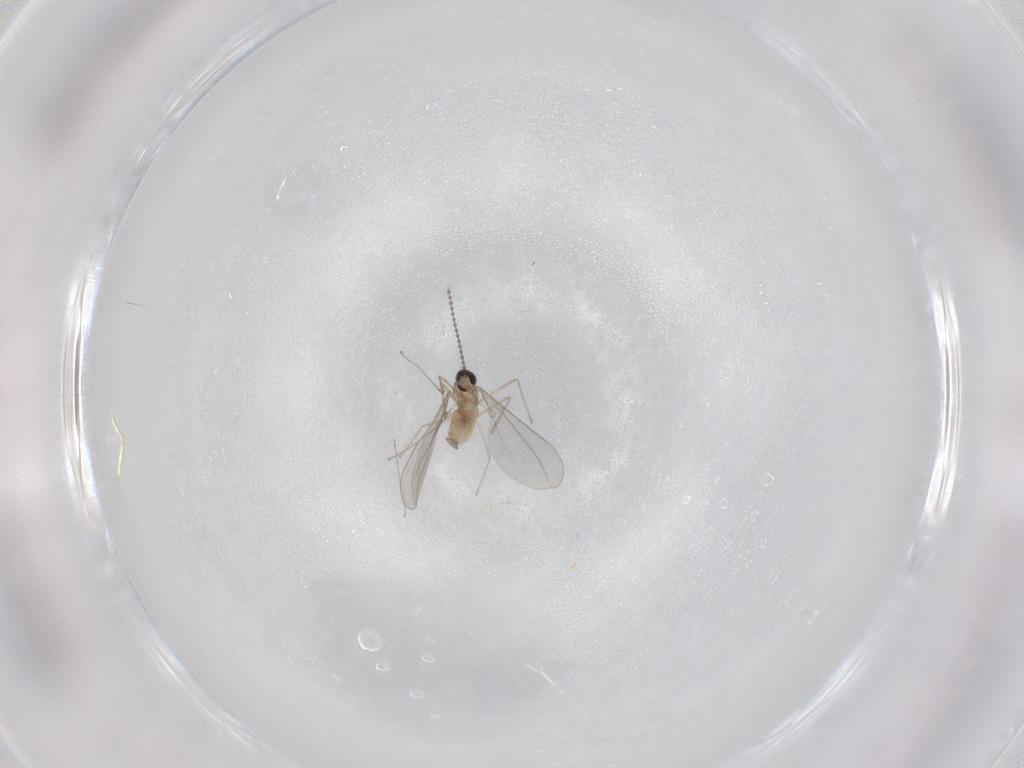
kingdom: Animalia
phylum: Arthropoda
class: Insecta
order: Diptera
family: Cecidomyiidae
